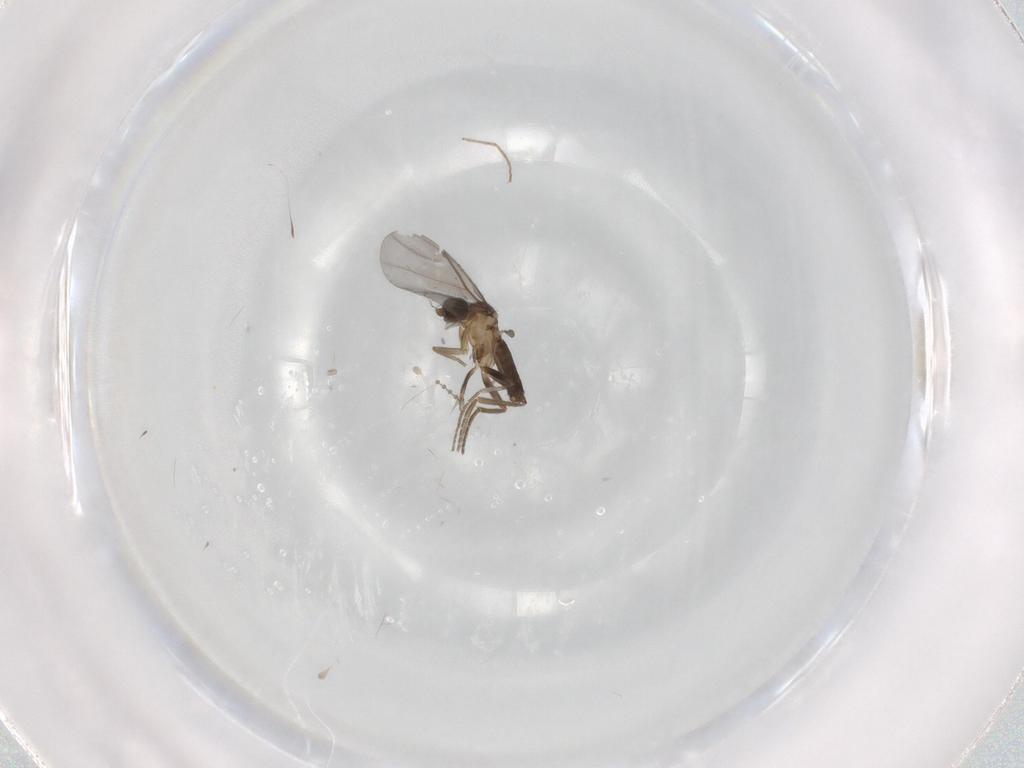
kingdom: Animalia
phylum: Arthropoda
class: Insecta
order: Diptera
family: Phoridae
